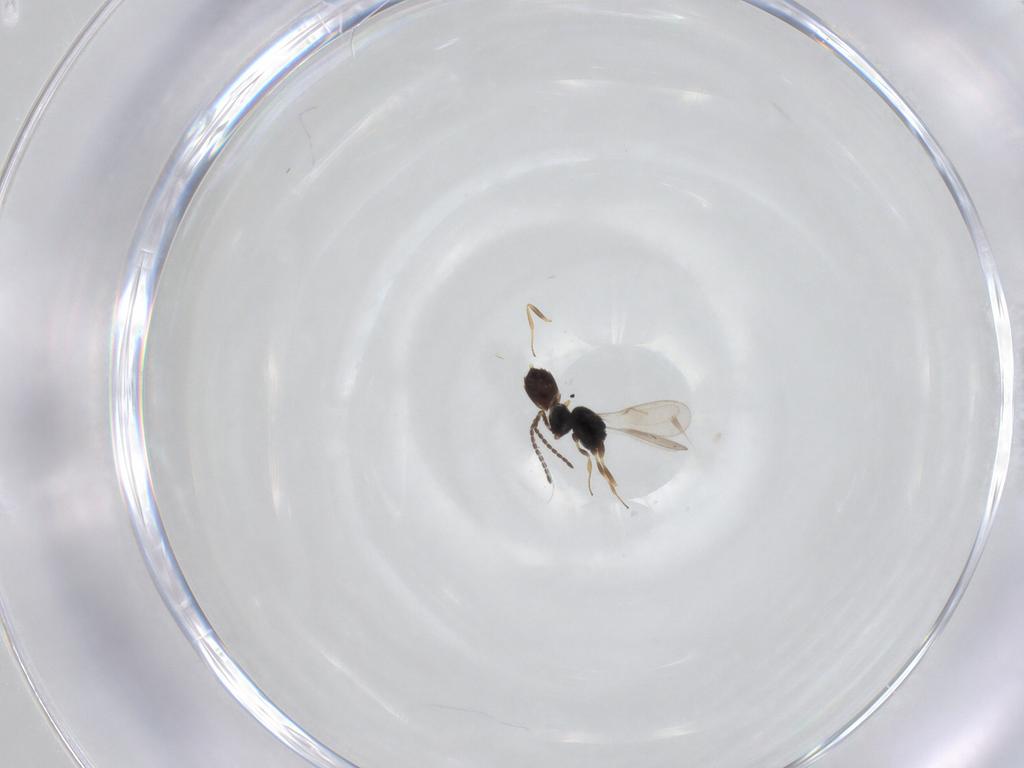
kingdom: Animalia
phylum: Arthropoda
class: Insecta
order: Hymenoptera
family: Scelionidae
